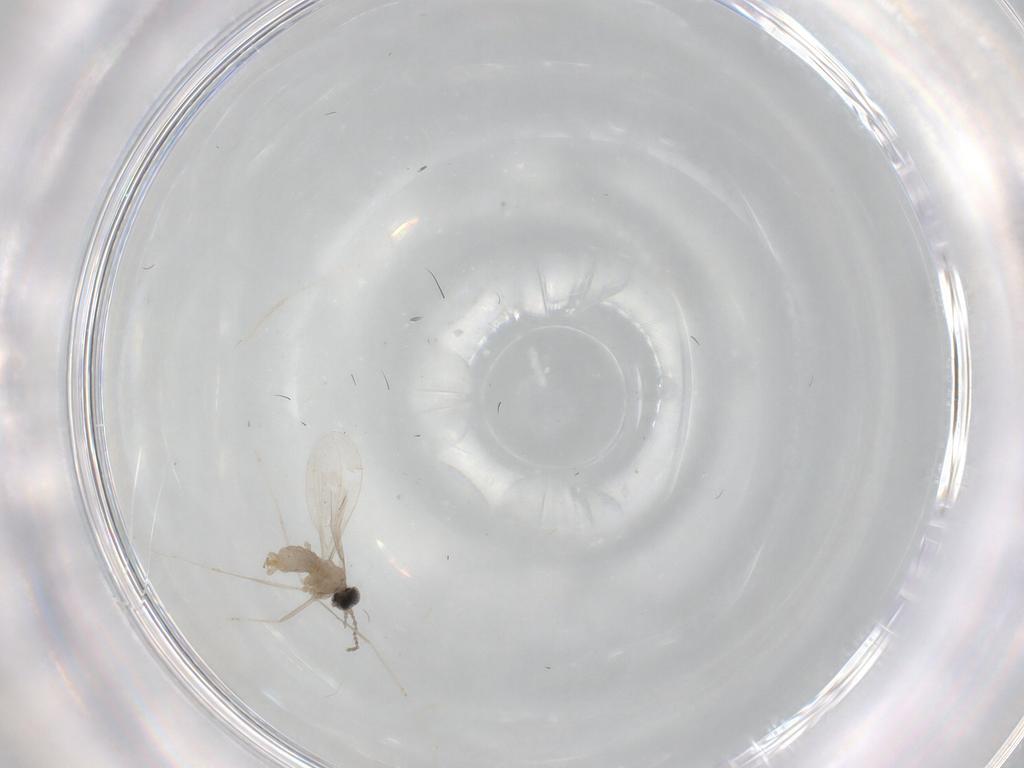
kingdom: Animalia
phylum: Arthropoda
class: Insecta
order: Diptera
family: Cecidomyiidae
